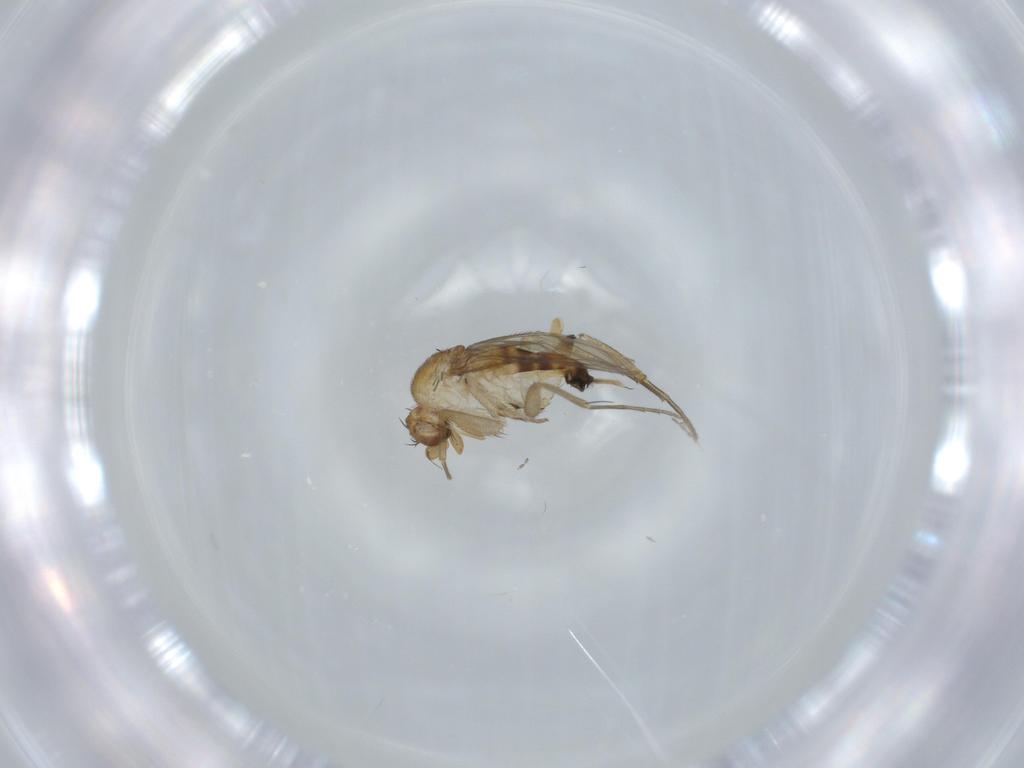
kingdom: Animalia
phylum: Arthropoda
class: Insecta
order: Diptera
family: Phoridae
